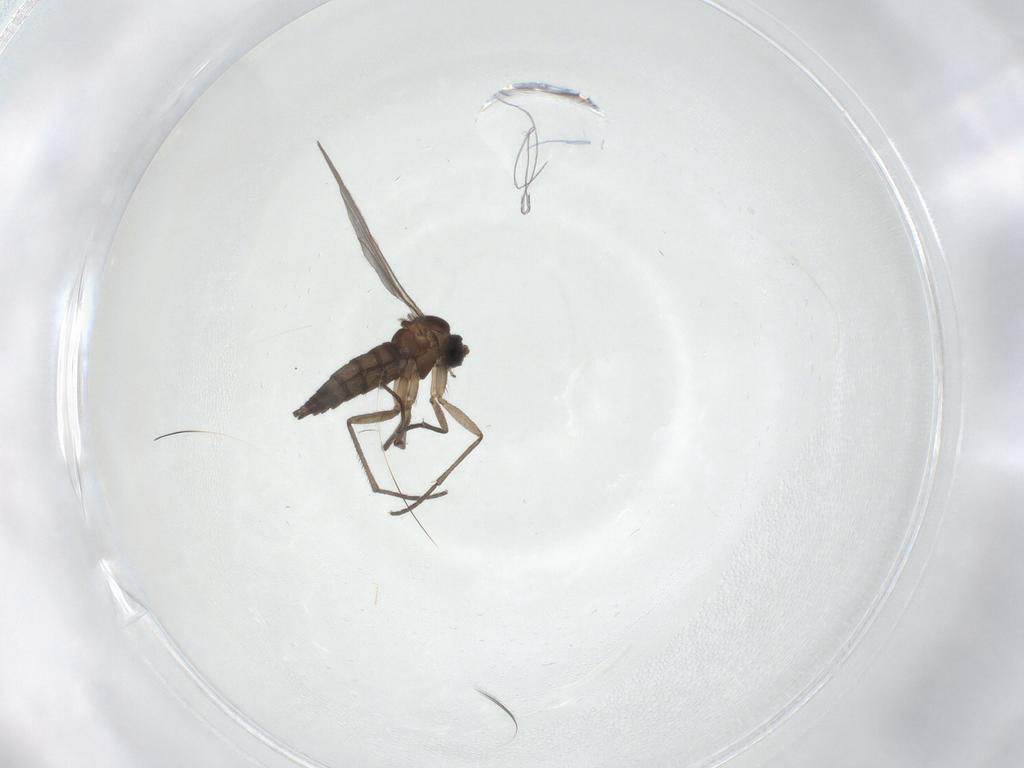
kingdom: Animalia
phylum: Arthropoda
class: Insecta
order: Diptera
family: Sciaridae
